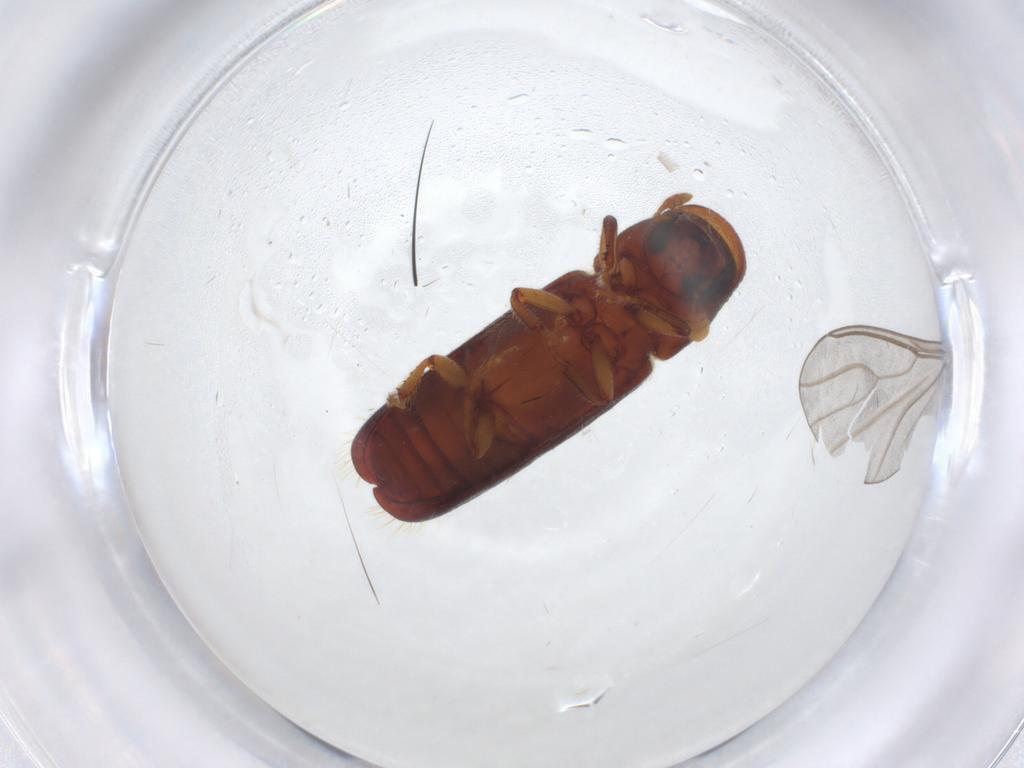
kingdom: Animalia
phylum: Arthropoda
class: Insecta
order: Coleoptera
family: Curculionidae
